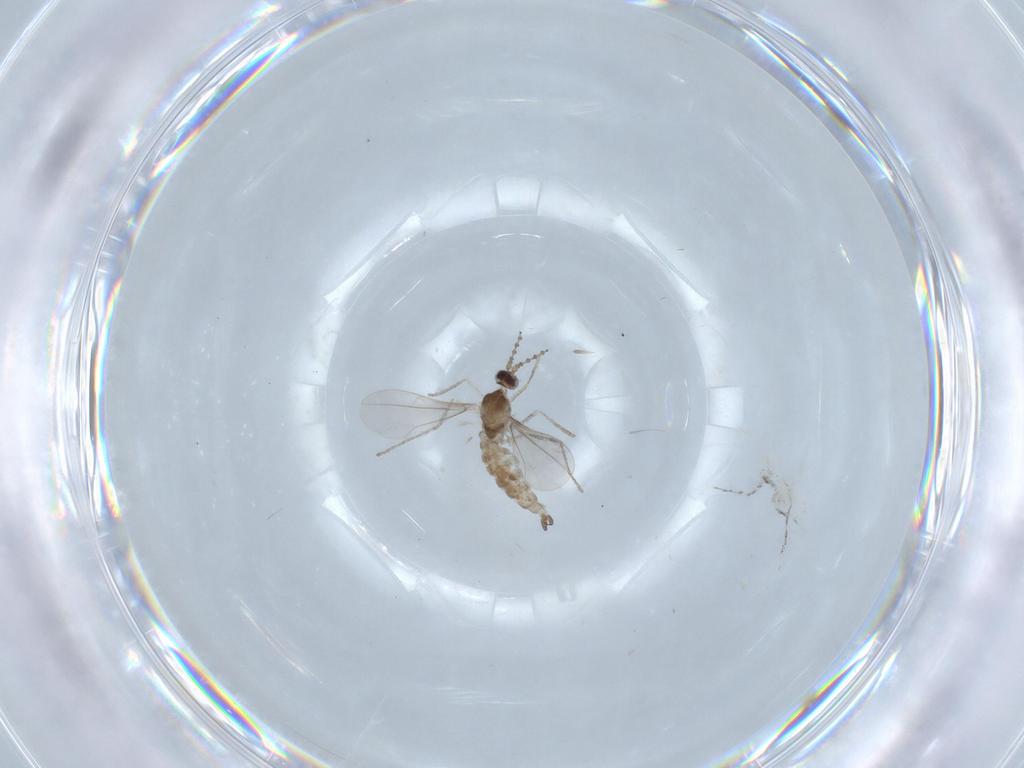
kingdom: Animalia
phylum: Arthropoda
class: Insecta
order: Diptera
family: Cecidomyiidae
